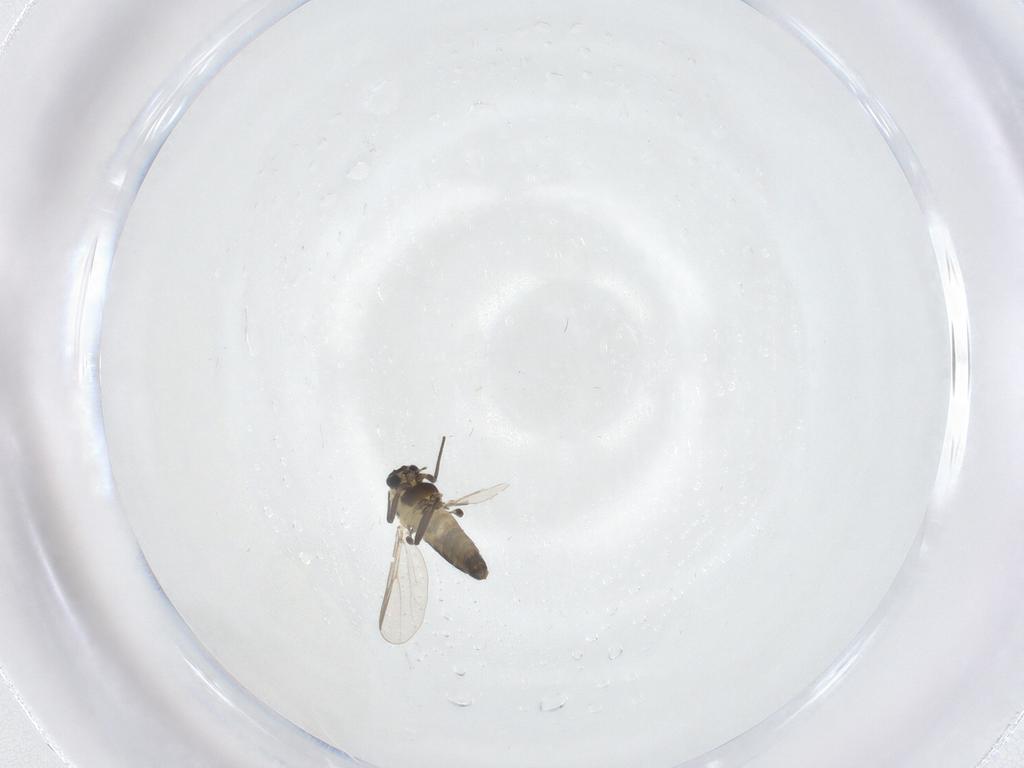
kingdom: Animalia
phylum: Arthropoda
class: Insecta
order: Diptera
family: Chironomidae
